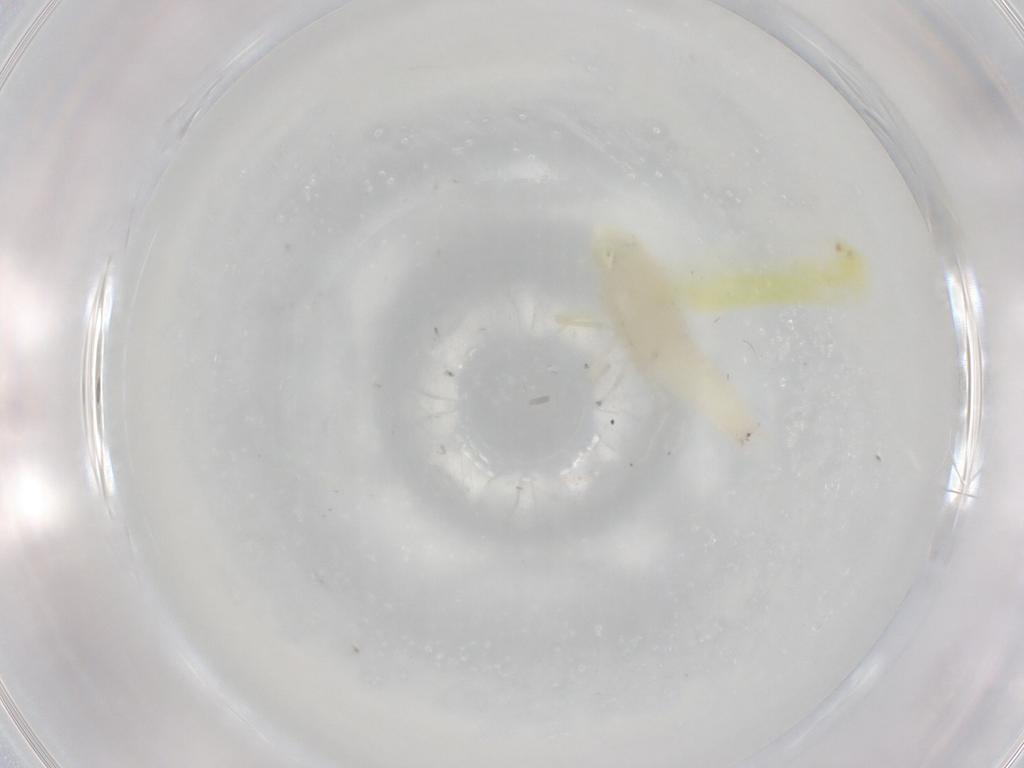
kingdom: Animalia
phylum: Arthropoda
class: Insecta
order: Hemiptera
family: Cicadellidae
